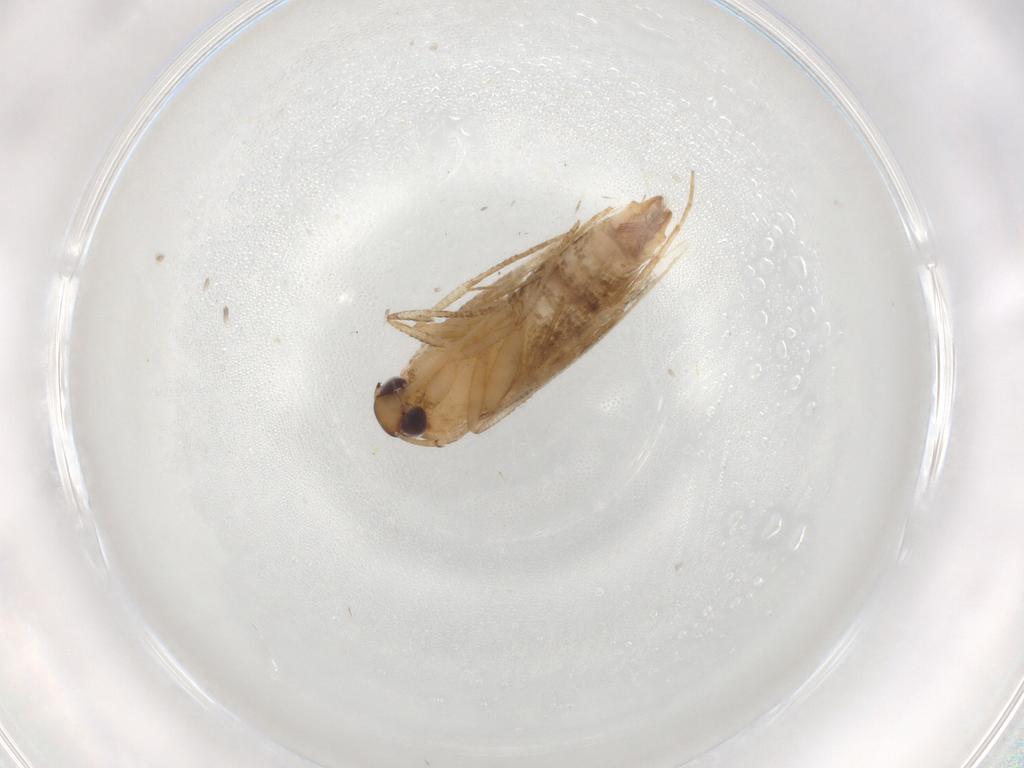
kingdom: Animalia
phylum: Arthropoda
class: Insecta
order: Lepidoptera
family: Cosmopterigidae
